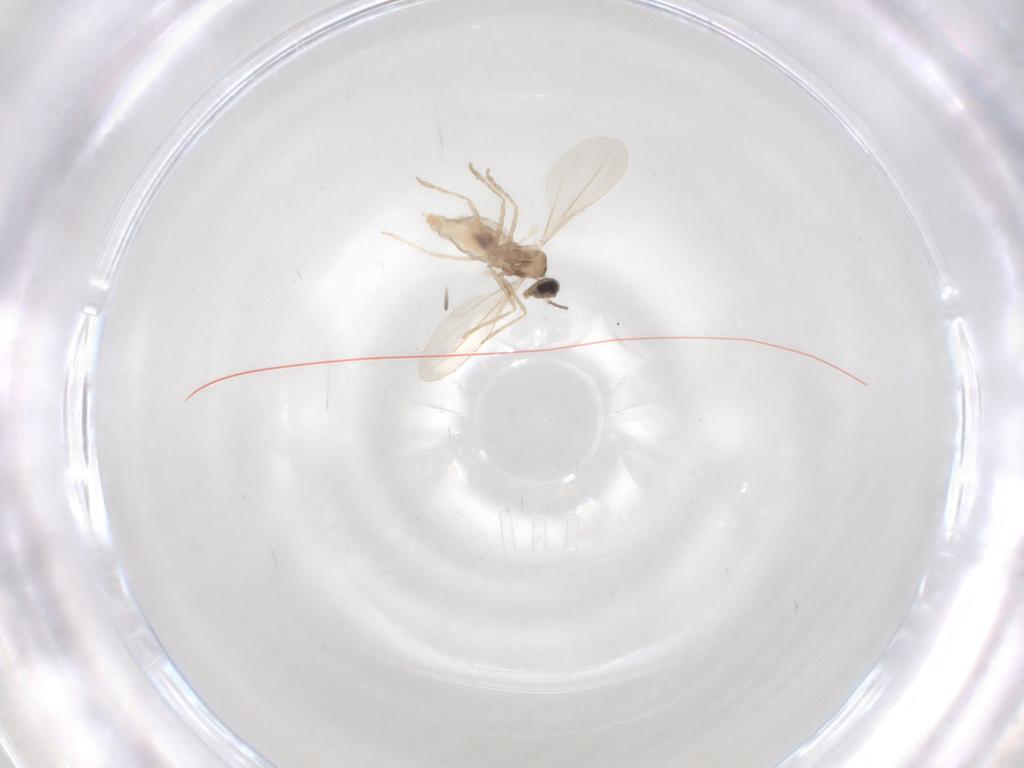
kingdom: Animalia
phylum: Arthropoda
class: Insecta
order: Diptera
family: Cecidomyiidae
